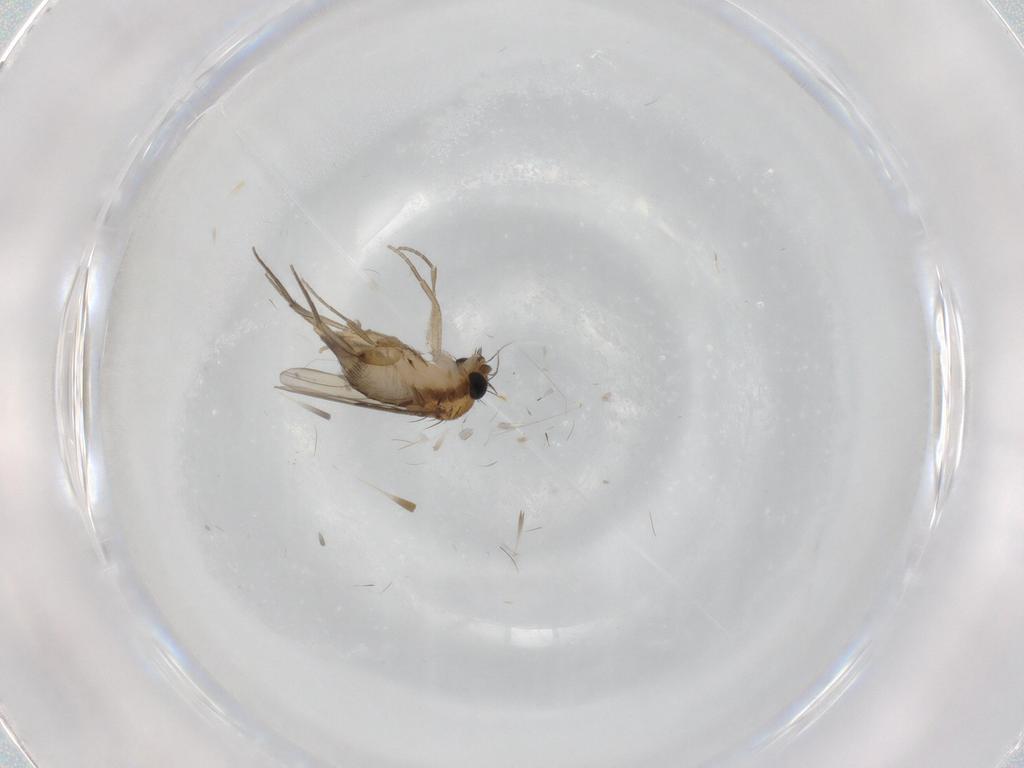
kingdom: Animalia
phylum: Arthropoda
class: Insecta
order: Diptera
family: Phoridae
